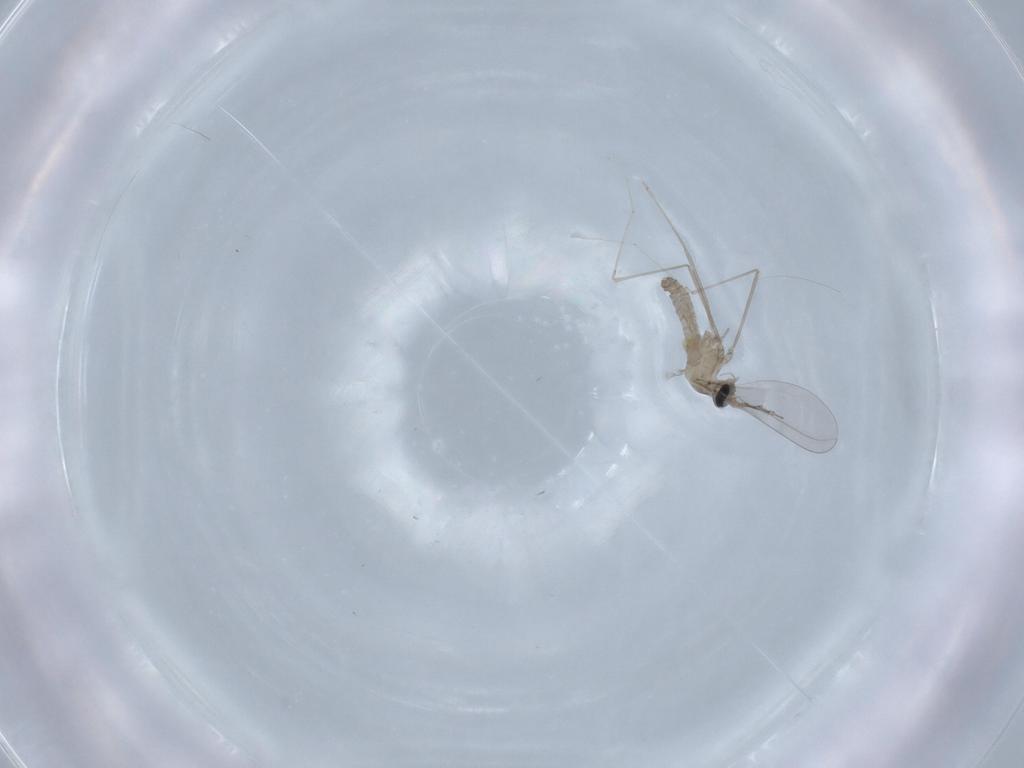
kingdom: Animalia
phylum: Arthropoda
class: Insecta
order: Diptera
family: Cecidomyiidae
